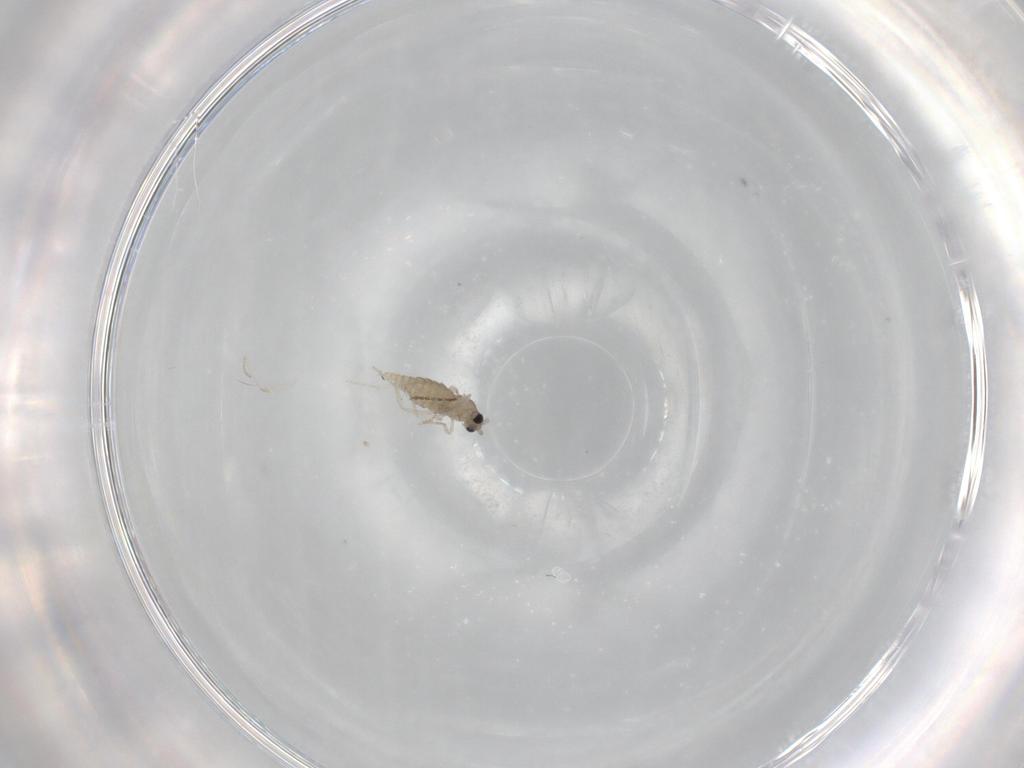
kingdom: Animalia
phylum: Arthropoda
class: Insecta
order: Diptera
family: Cecidomyiidae
